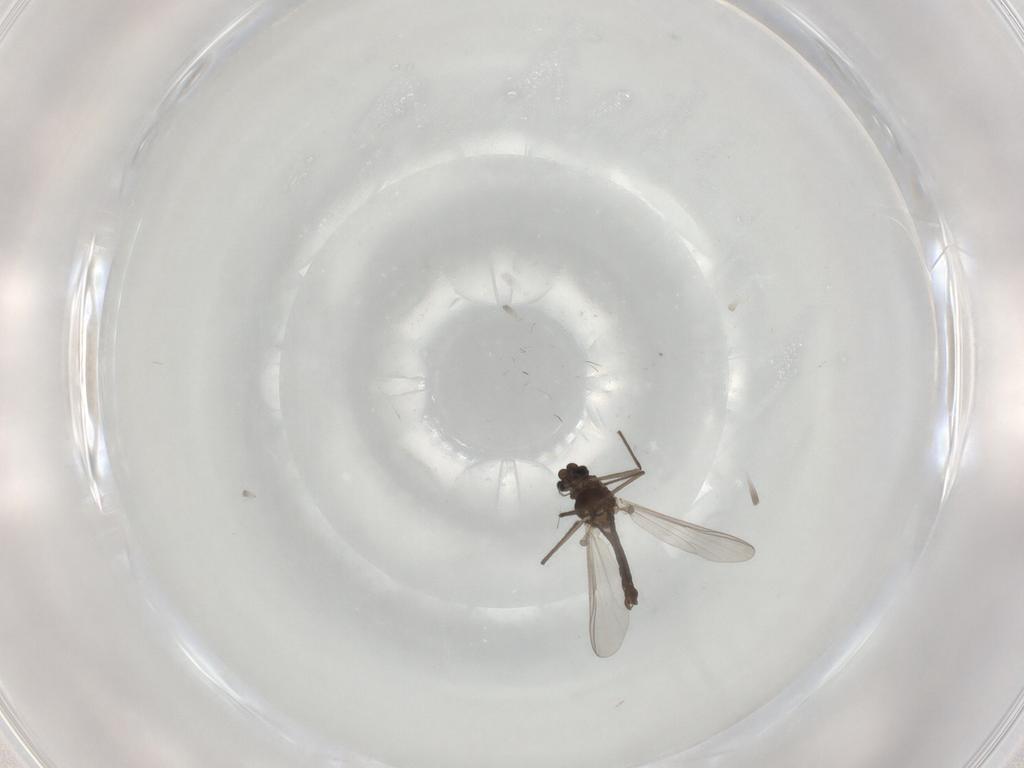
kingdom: Animalia
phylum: Arthropoda
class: Insecta
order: Diptera
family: Chironomidae
